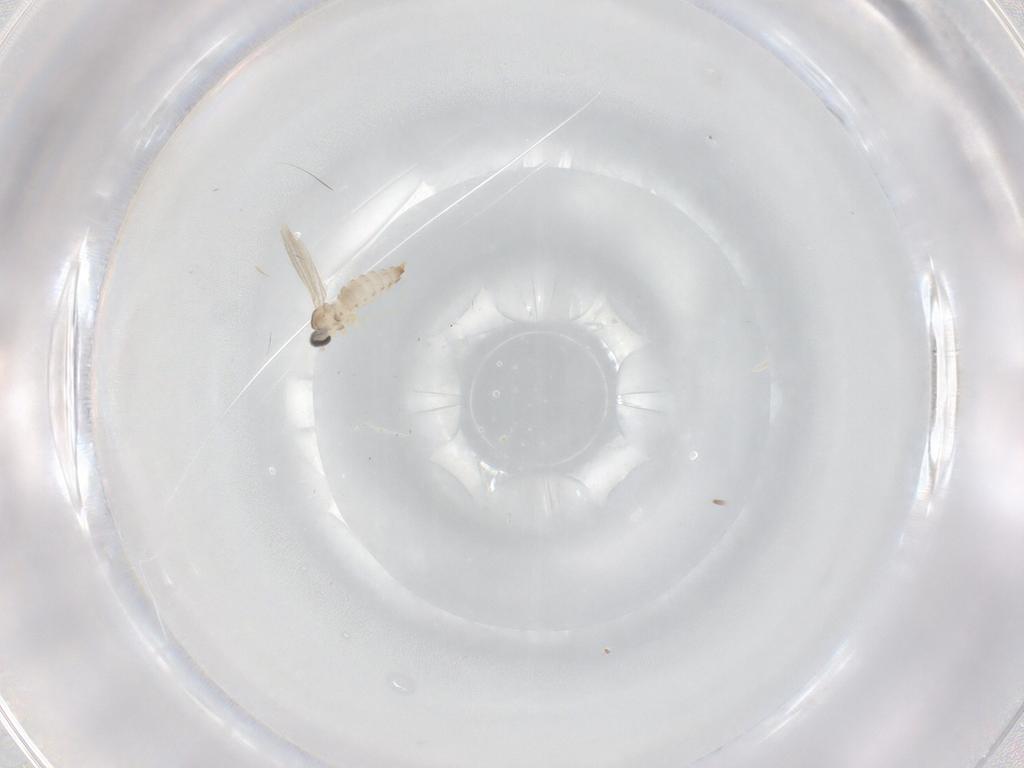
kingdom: Animalia
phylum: Arthropoda
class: Insecta
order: Diptera
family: Cecidomyiidae
